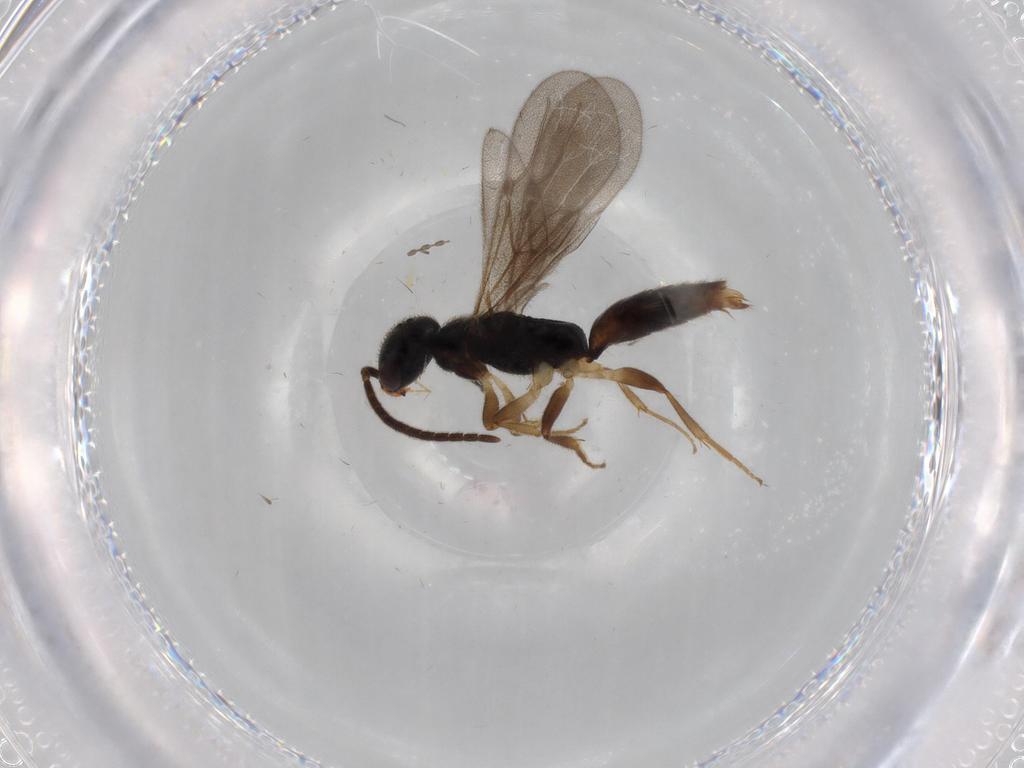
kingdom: Animalia
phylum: Arthropoda
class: Insecta
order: Hymenoptera
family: Bethylidae
